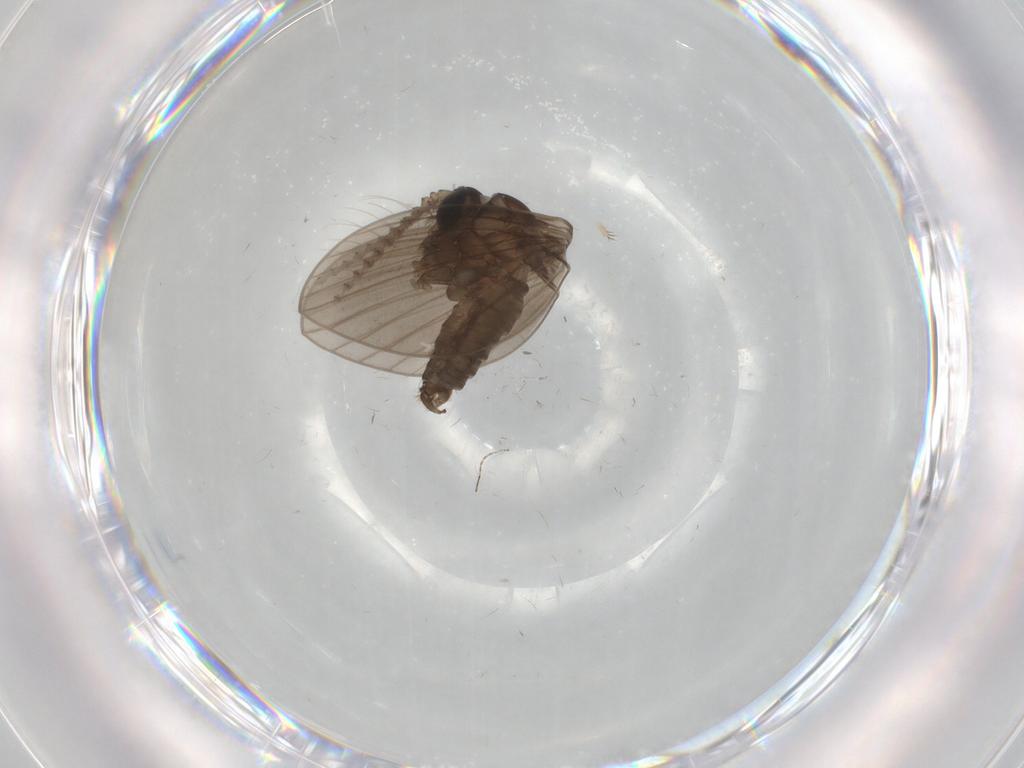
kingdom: Animalia
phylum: Arthropoda
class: Insecta
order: Diptera
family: Psychodidae
